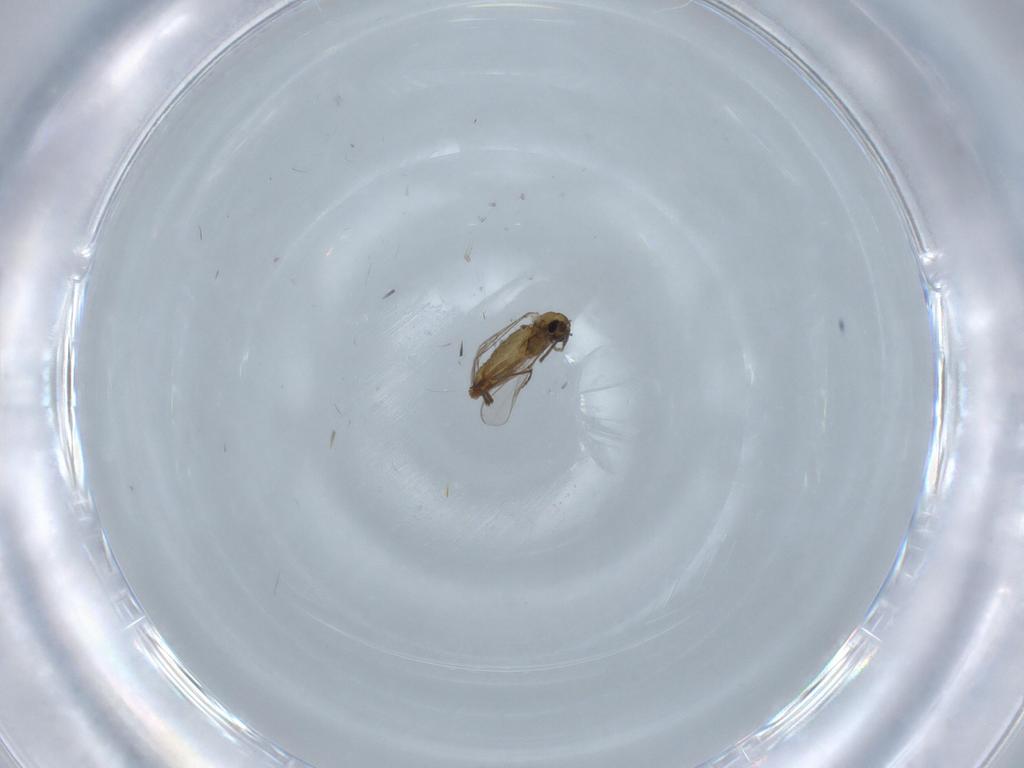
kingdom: Animalia
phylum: Arthropoda
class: Insecta
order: Diptera
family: Chironomidae
